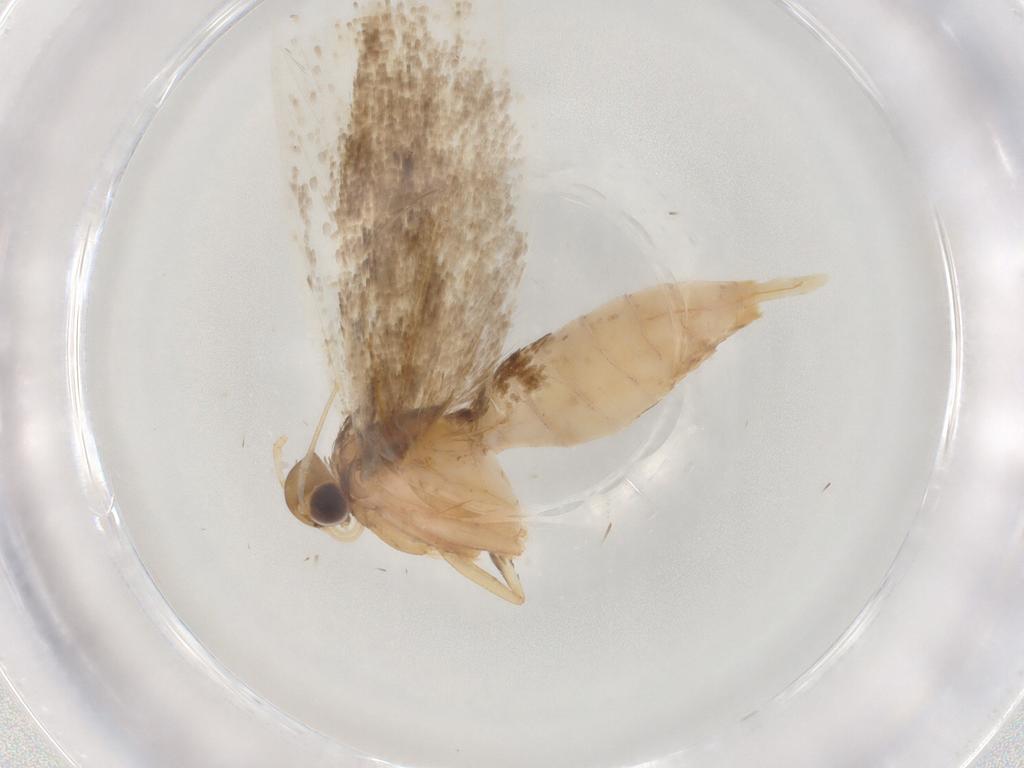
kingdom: Animalia
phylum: Arthropoda
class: Insecta
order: Lepidoptera
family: Gelechiidae
